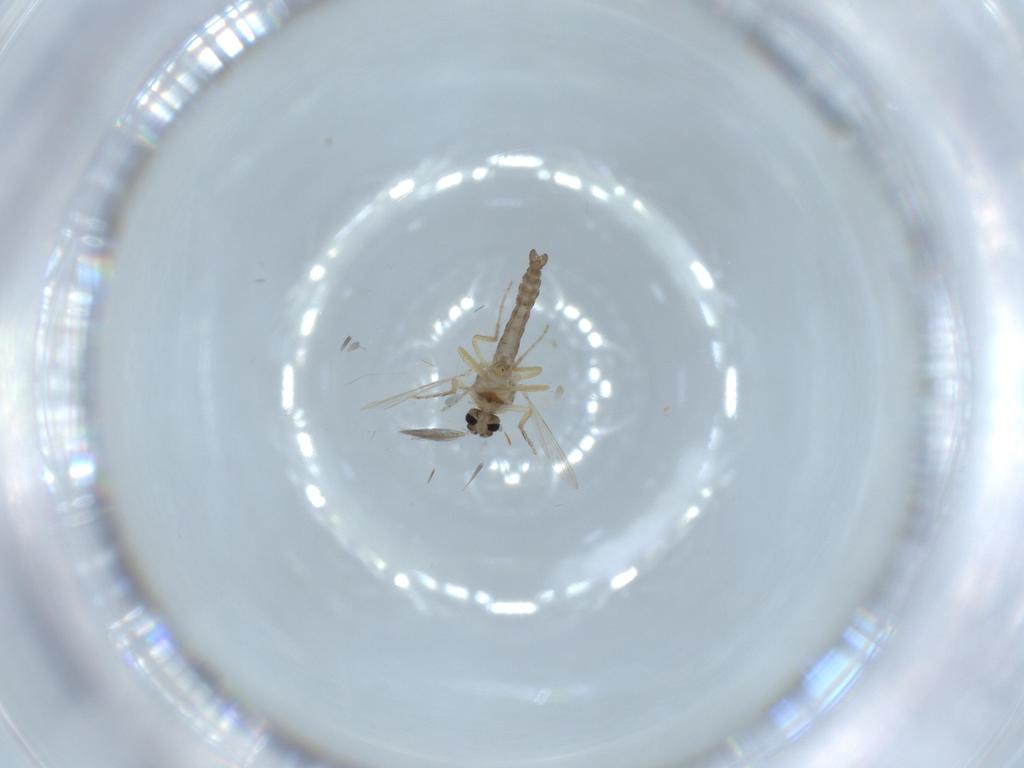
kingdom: Animalia
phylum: Arthropoda
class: Insecta
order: Diptera
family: Ceratopogonidae
